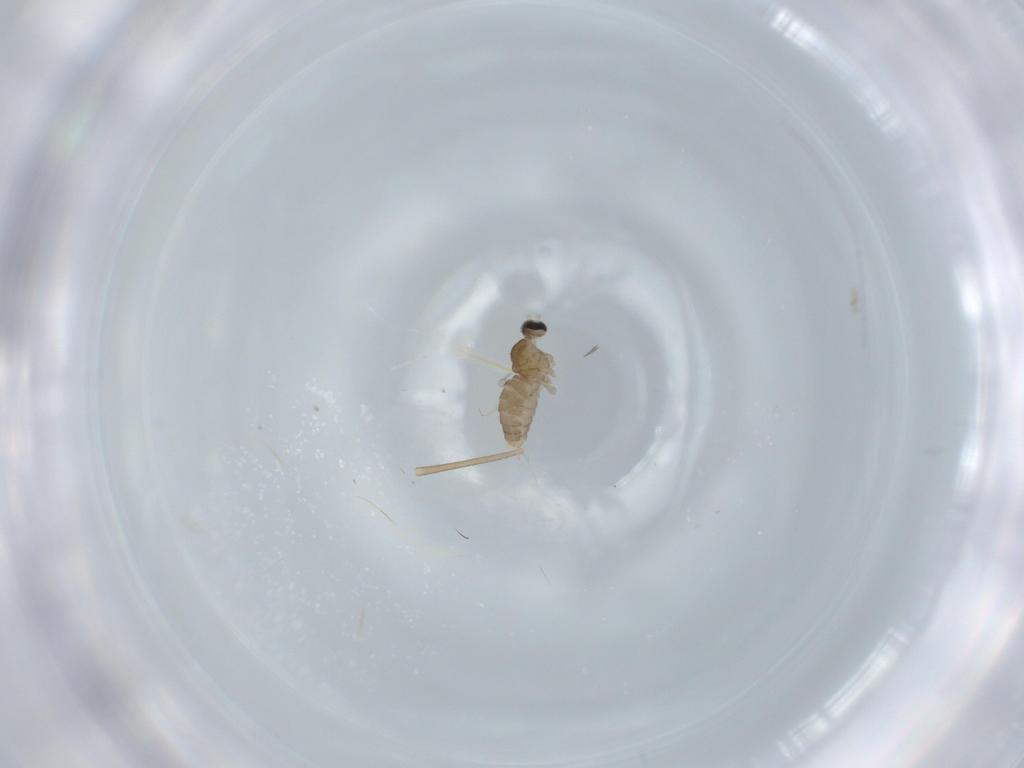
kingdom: Animalia
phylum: Arthropoda
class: Insecta
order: Diptera
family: Cecidomyiidae
